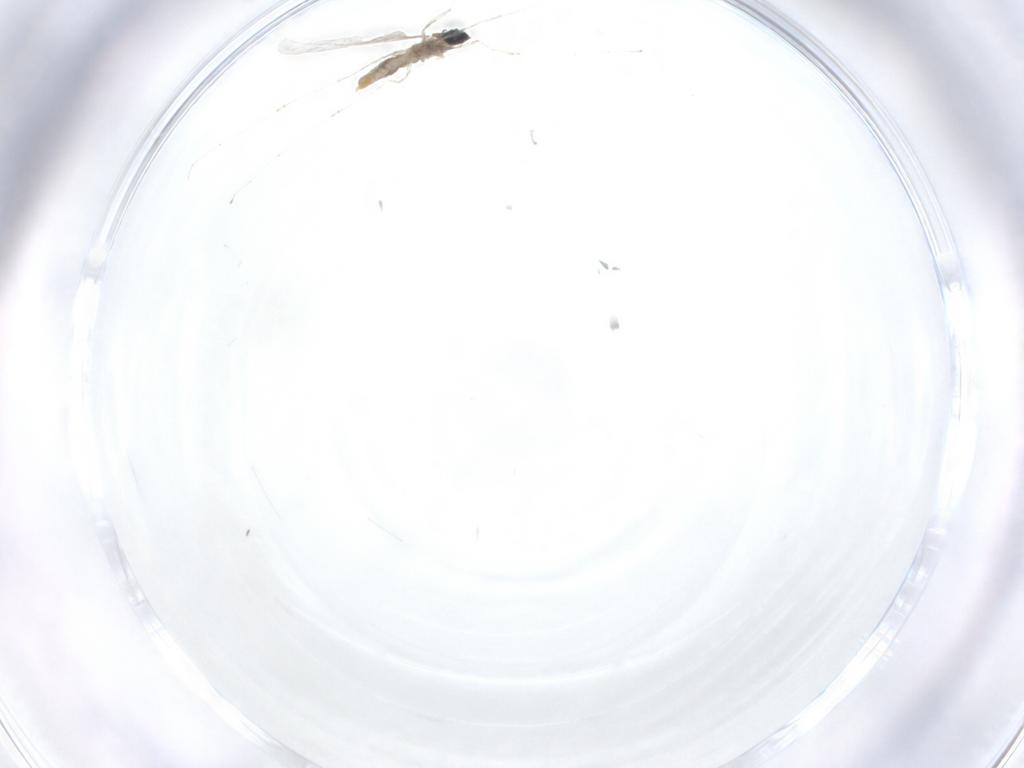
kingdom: Animalia
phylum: Arthropoda
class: Insecta
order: Diptera
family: Cecidomyiidae
